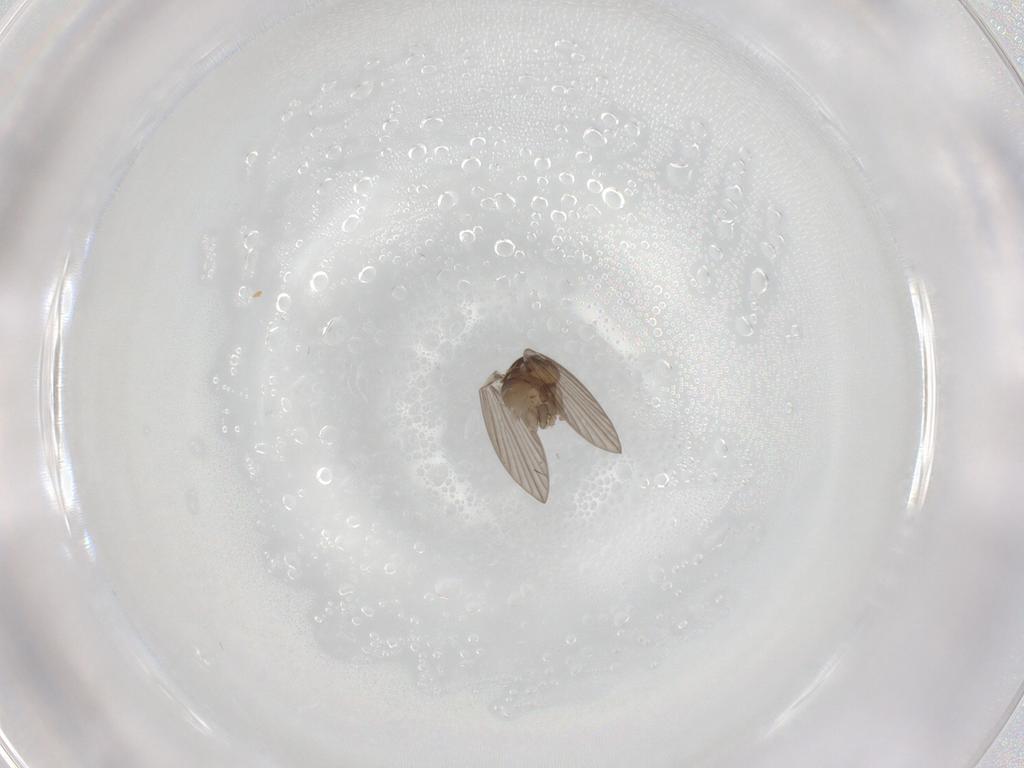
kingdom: Animalia
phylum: Arthropoda
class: Insecta
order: Diptera
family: Psychodidae
